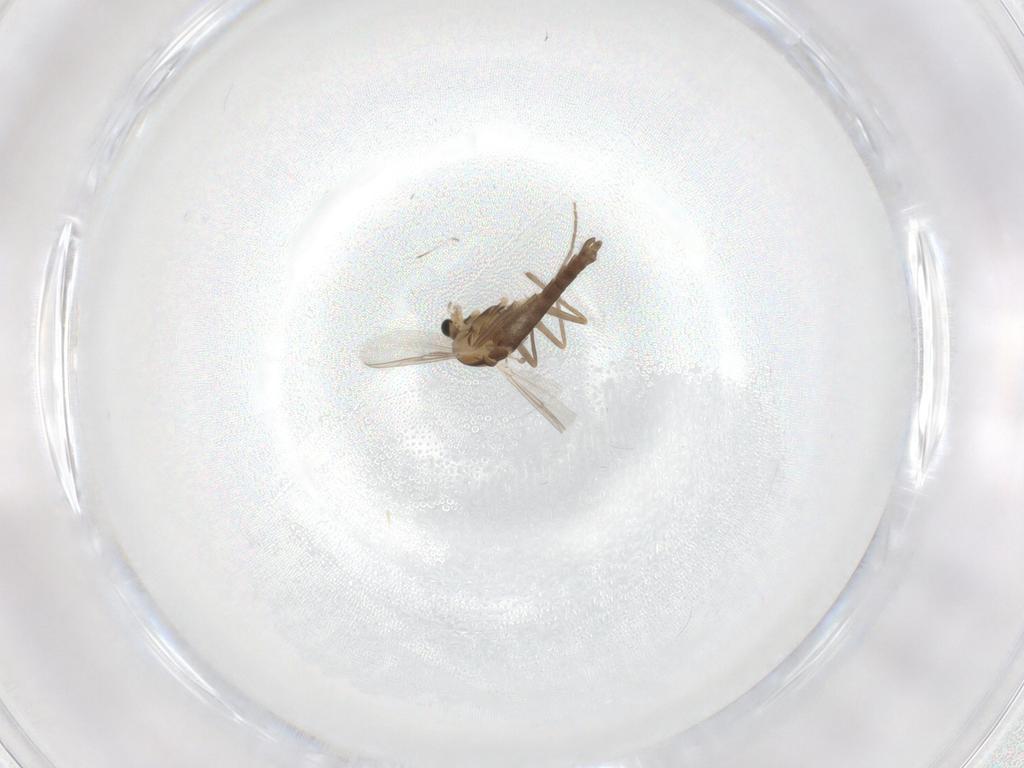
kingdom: Animalia
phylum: Arthropoda
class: Insecta
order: Diptera
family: Chironomidae
